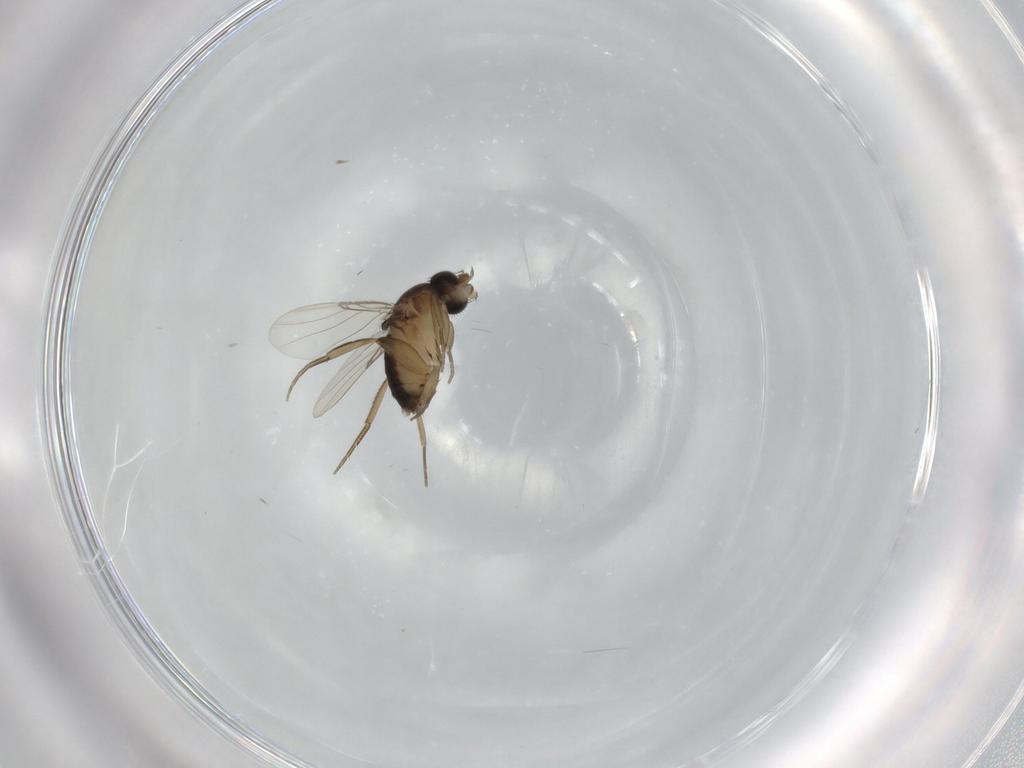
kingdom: Animalia
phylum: Arthropoda
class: Insecta
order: Diptera
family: Phoridae
